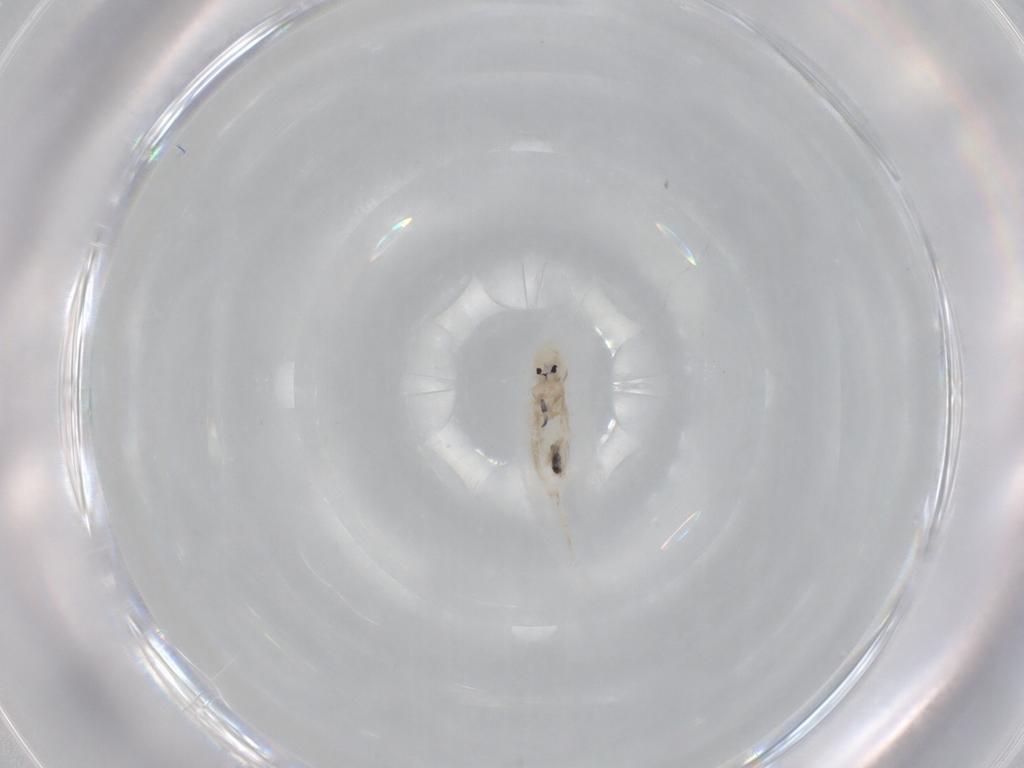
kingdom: Animalia
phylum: Arthropoda
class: Collembola
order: Entomobryomorpha
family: Entomobryidae
